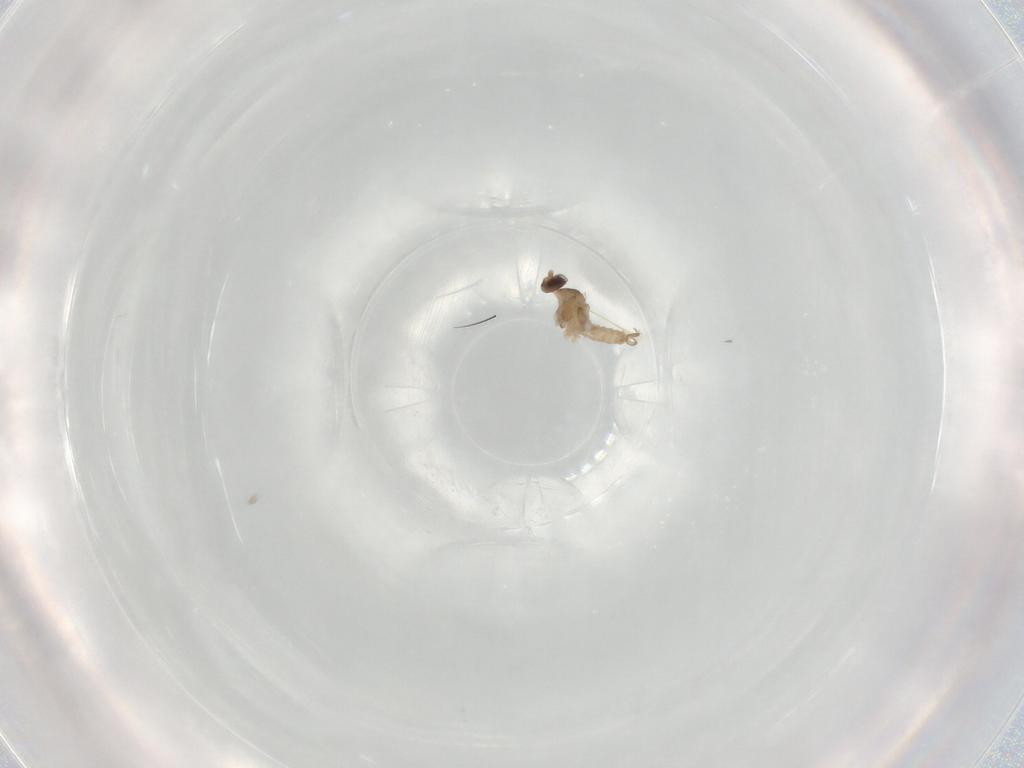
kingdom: Animalia
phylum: Arthropoda
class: Insecta
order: Diptera
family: Cecidomyiidae
